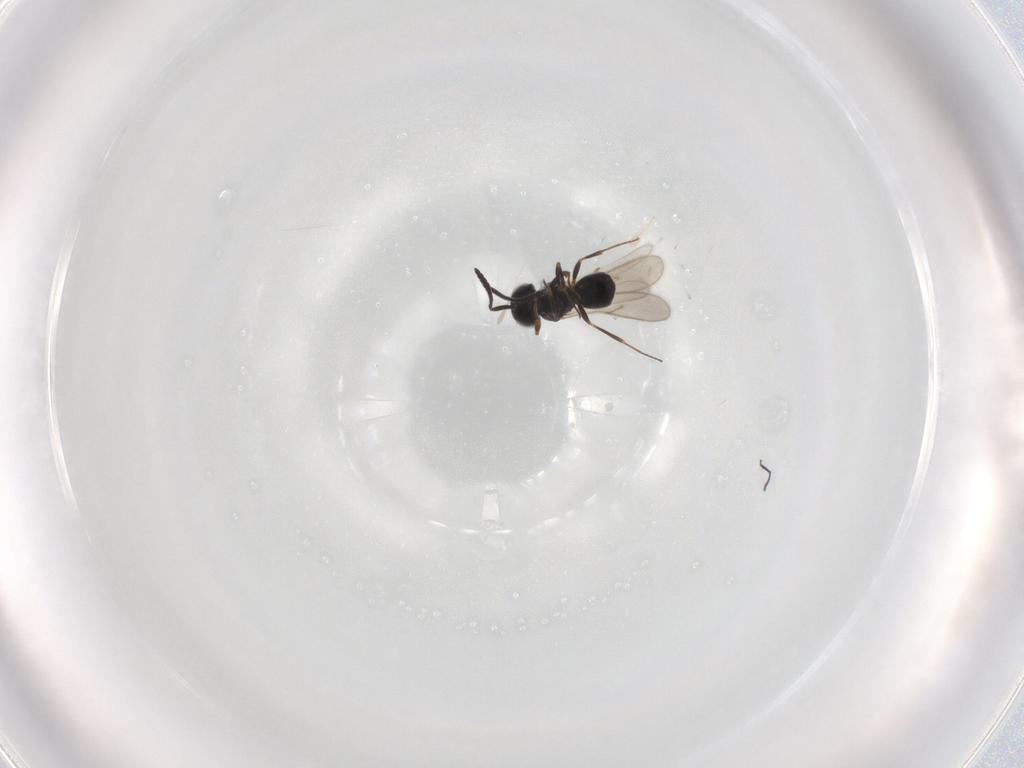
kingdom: Animalia
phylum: Arthropoda
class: Insecta
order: Hymenoptera
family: Scelionidae
